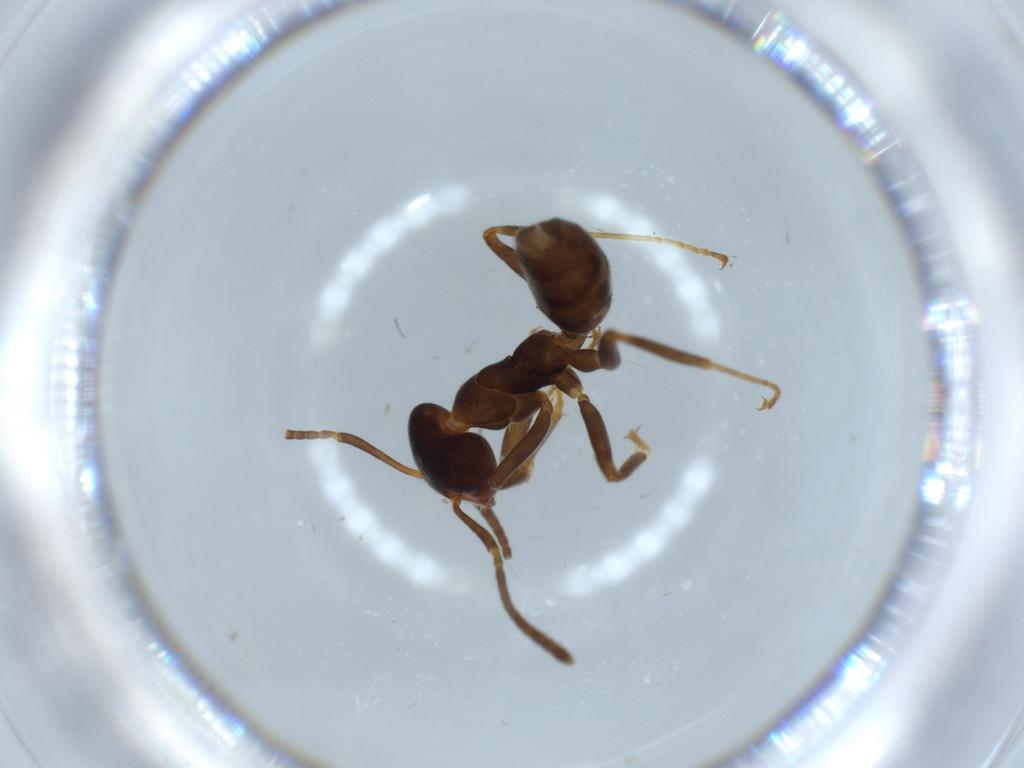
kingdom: Animalia
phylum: Arthropoda
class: Insecta
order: Hymenoptera
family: Formicidae
